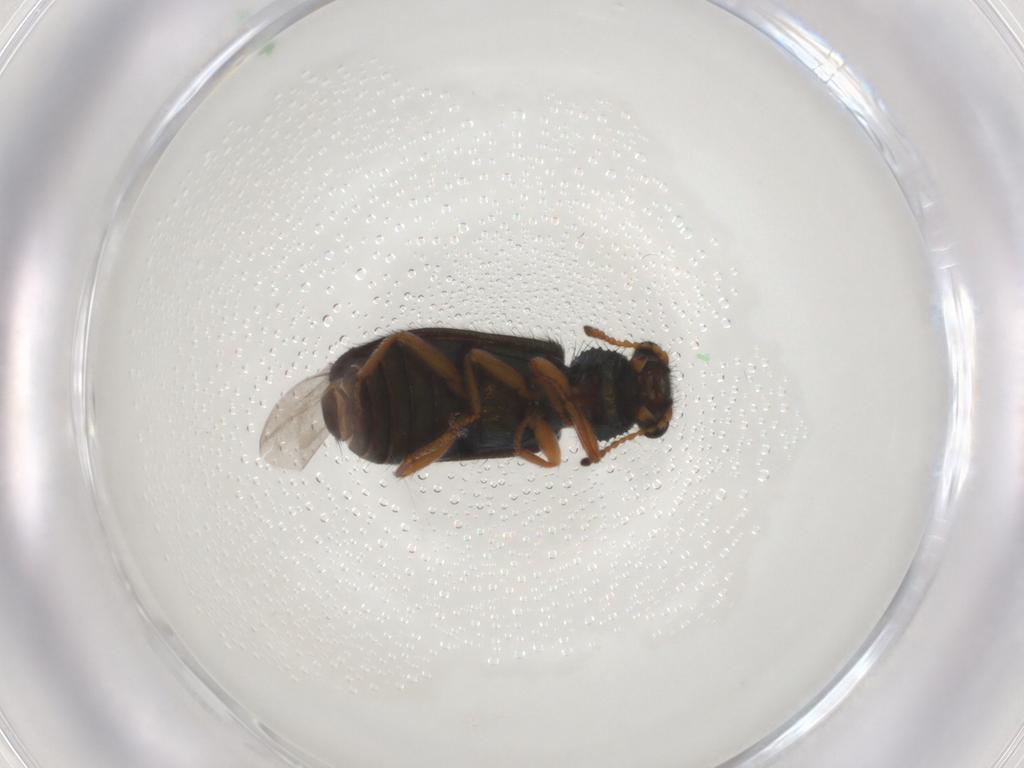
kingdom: Animalia
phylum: Arthropoda
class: Insecta
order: Coleoptera
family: Melyridae
